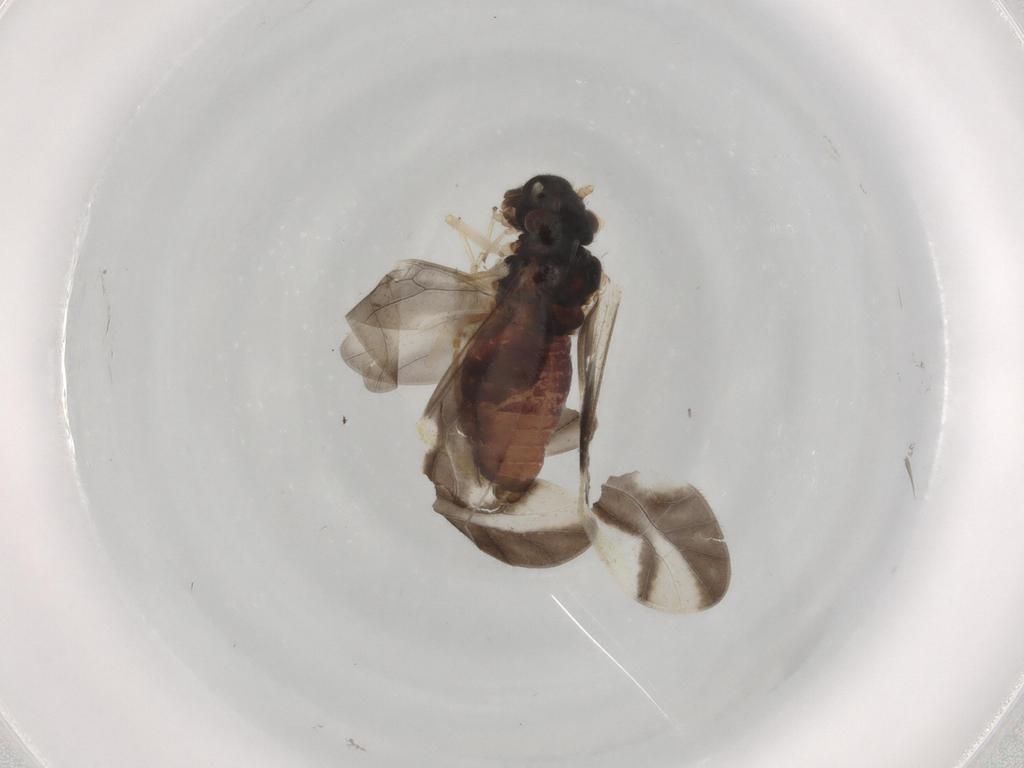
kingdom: Animalia
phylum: Arthropoda
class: Insecta
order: Psocodea
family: Caeciliusidae
